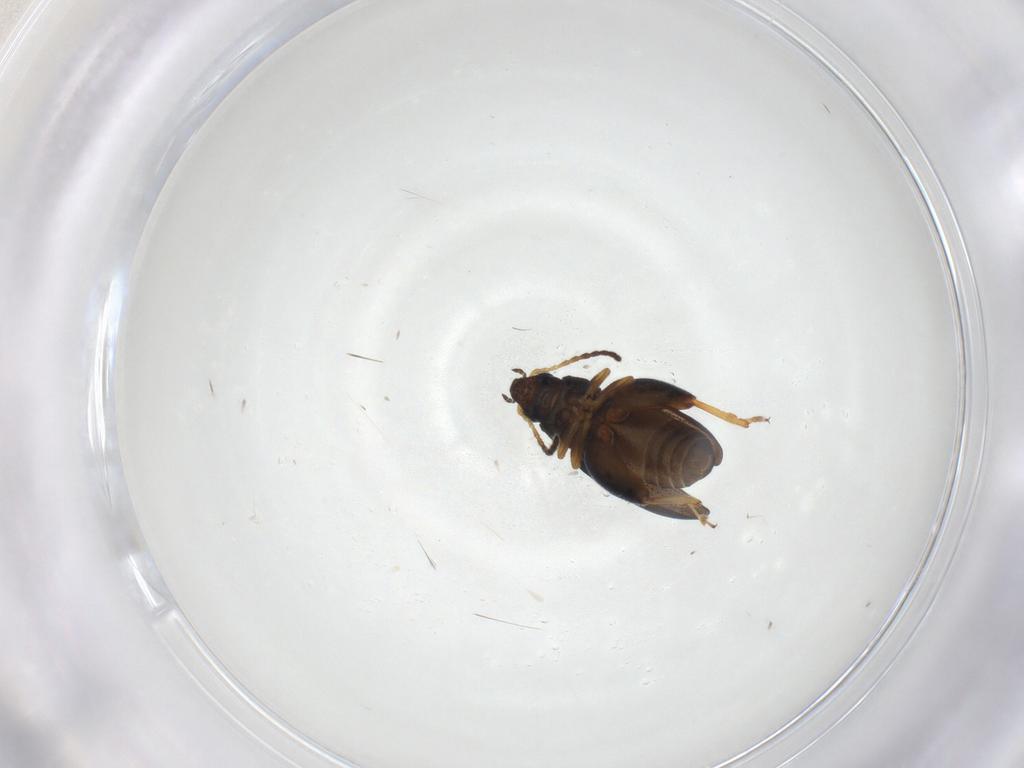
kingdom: Animalia
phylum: Arthropoda
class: Insecta
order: Coleoptera
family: Chrysomelidae
